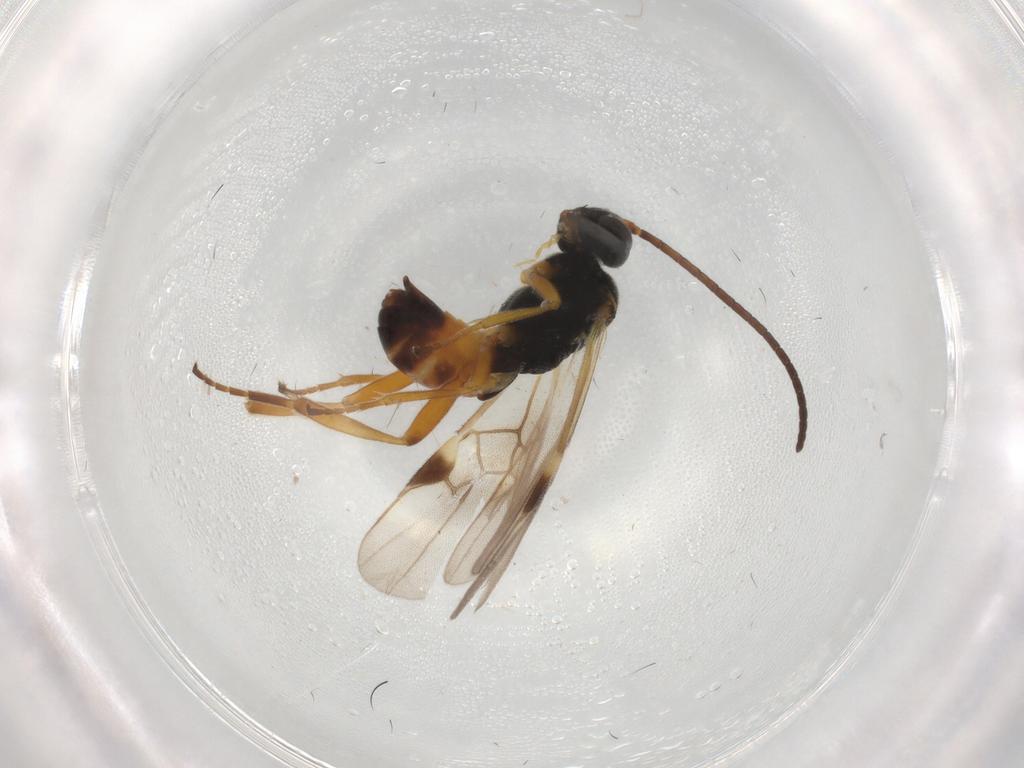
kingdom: Animalia
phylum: Arthropoda
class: Insecta
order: Hymenoptera
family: Braconidae
